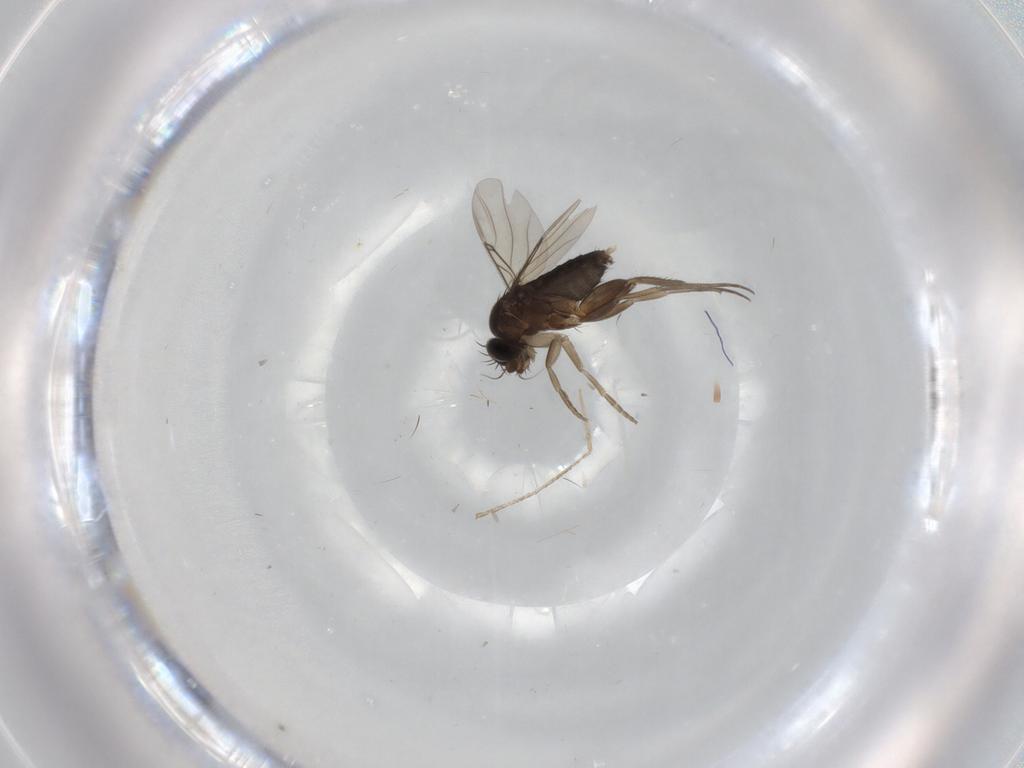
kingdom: Animalia
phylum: Arthropoda
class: Insecta
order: Diptera
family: Phoridae
